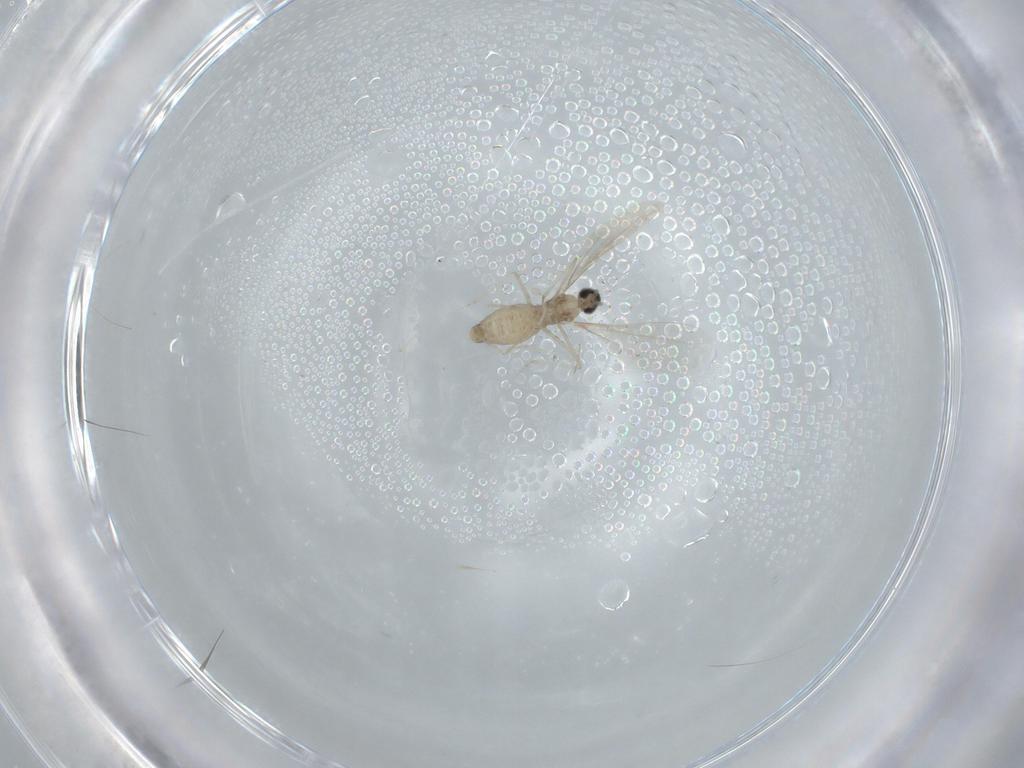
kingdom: Animalia
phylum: Arthropoda
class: Insecta
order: Diptera
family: Cecidomyiidae
